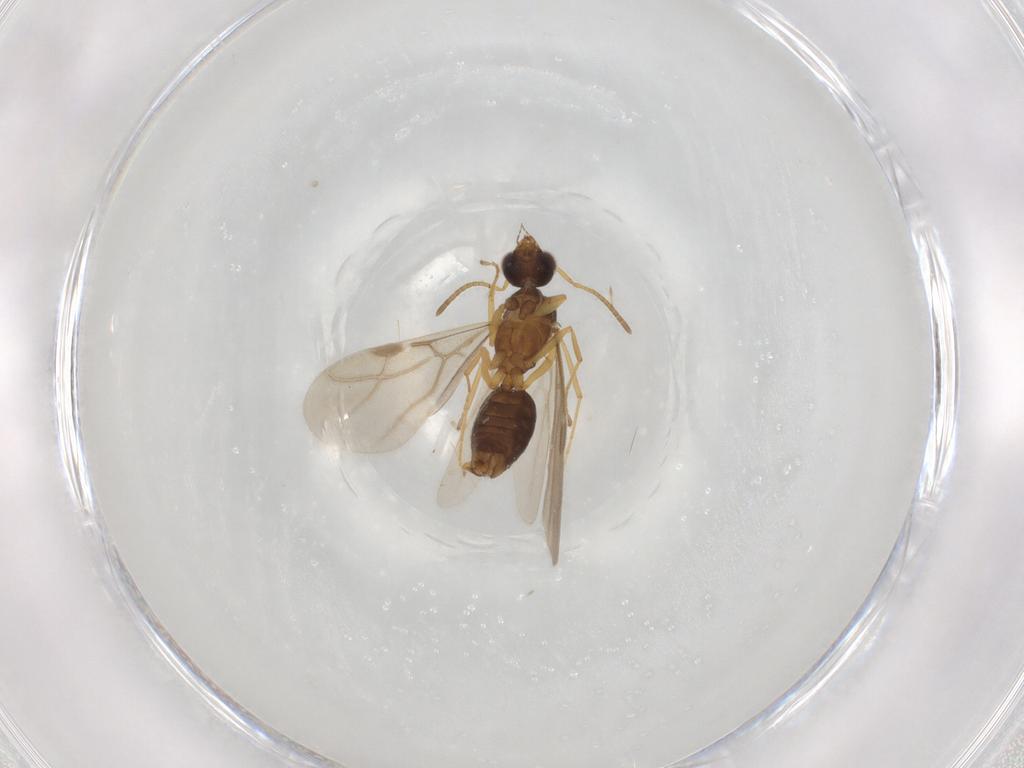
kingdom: Animalia
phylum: Arthropoda
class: Insecta
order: Hymenoptera
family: Formicidae
